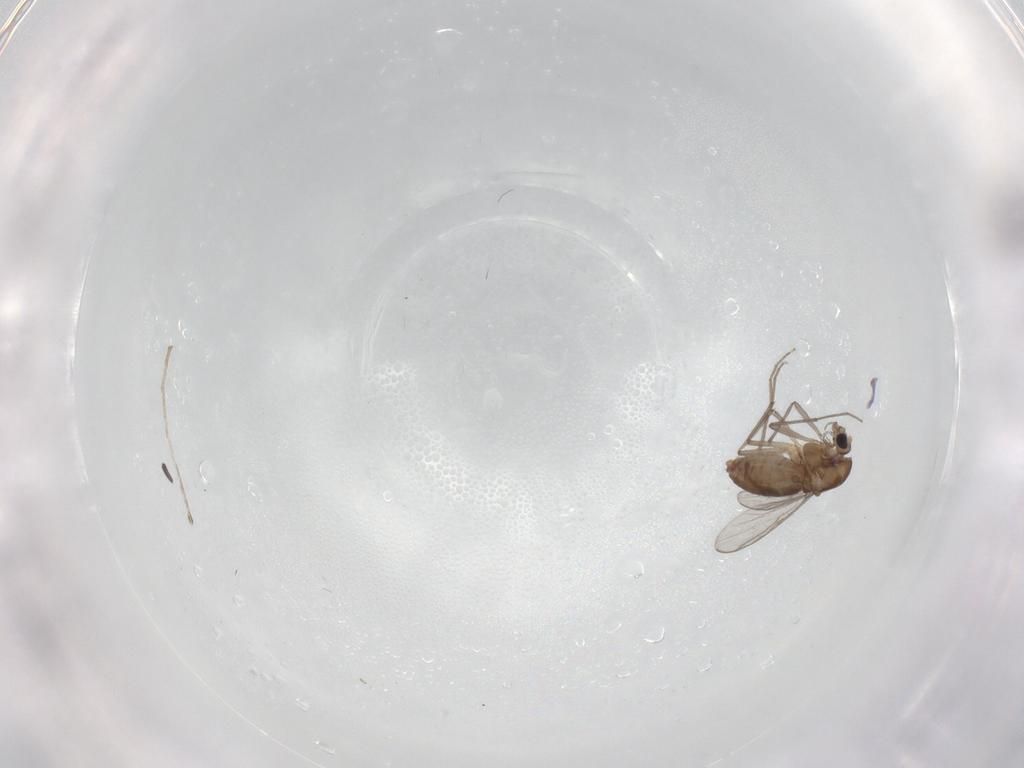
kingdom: Animalia
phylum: Arthropoda
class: Insecta
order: Diptera
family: Chironomidae
